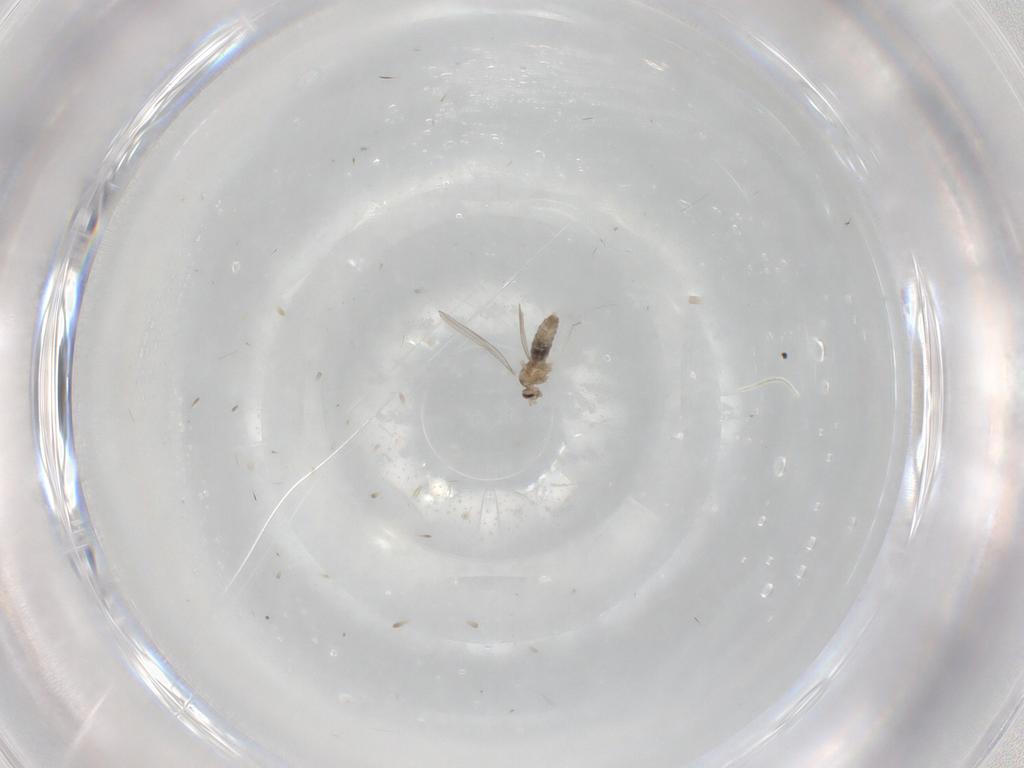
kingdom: Animalia
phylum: Arthropoda
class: Insecta
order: Diptera
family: Cecidomyiidae
